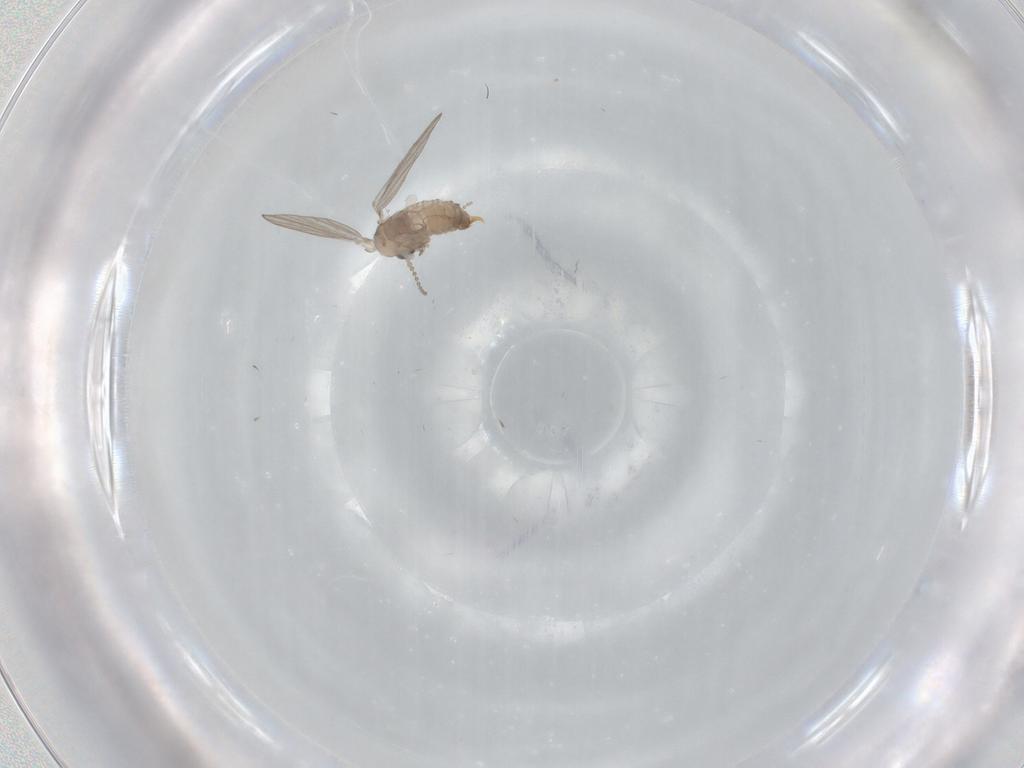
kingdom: Animalia
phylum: Arthropoda
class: Insecta
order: Diptera
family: Psychodidae
